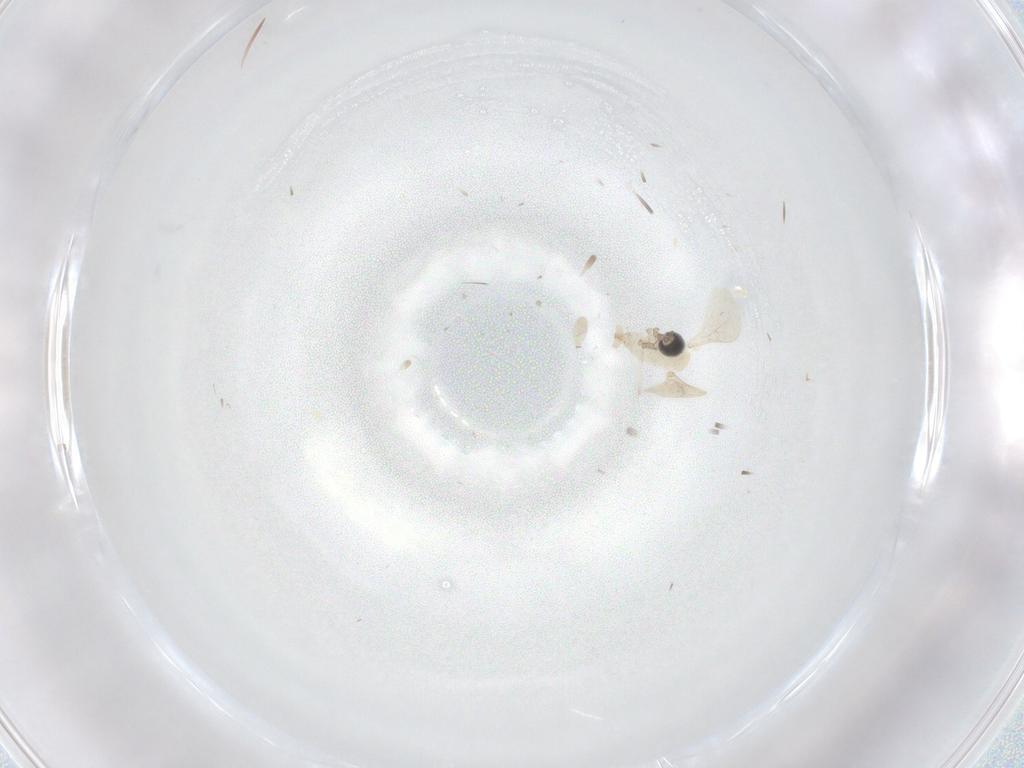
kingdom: Animalia
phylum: Arthropoda
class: Insecta
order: Diptera
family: Cecidomyiidae
